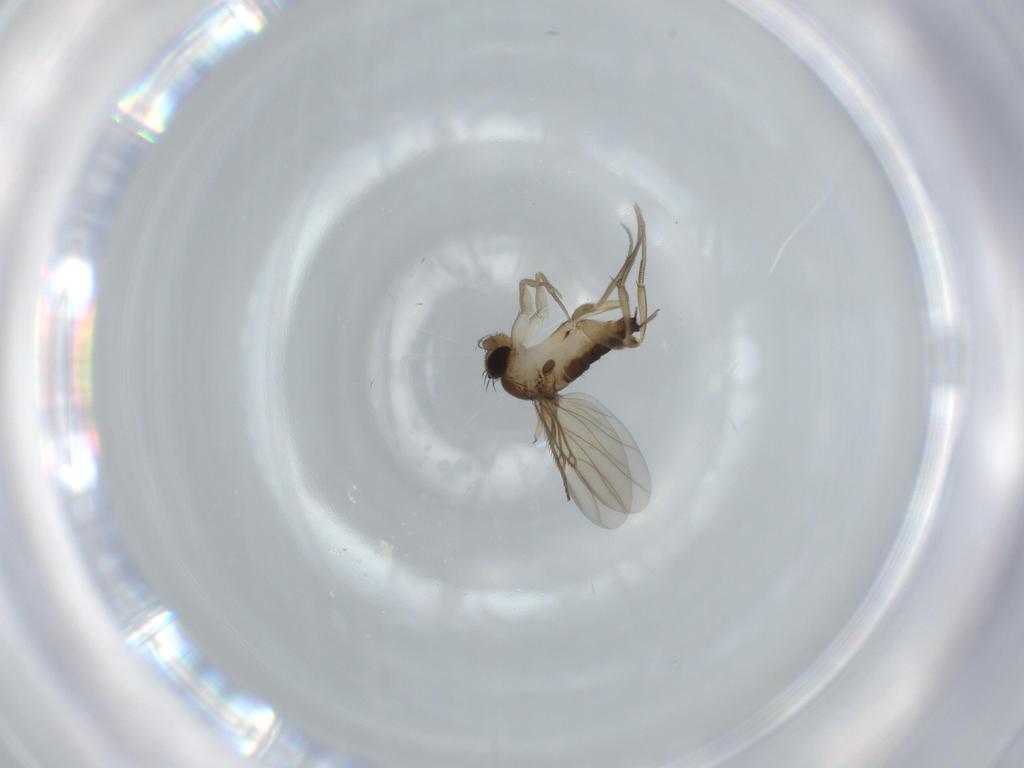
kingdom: Animalia
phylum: Arthropoda
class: Insecta
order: Diptera
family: Phoridae
